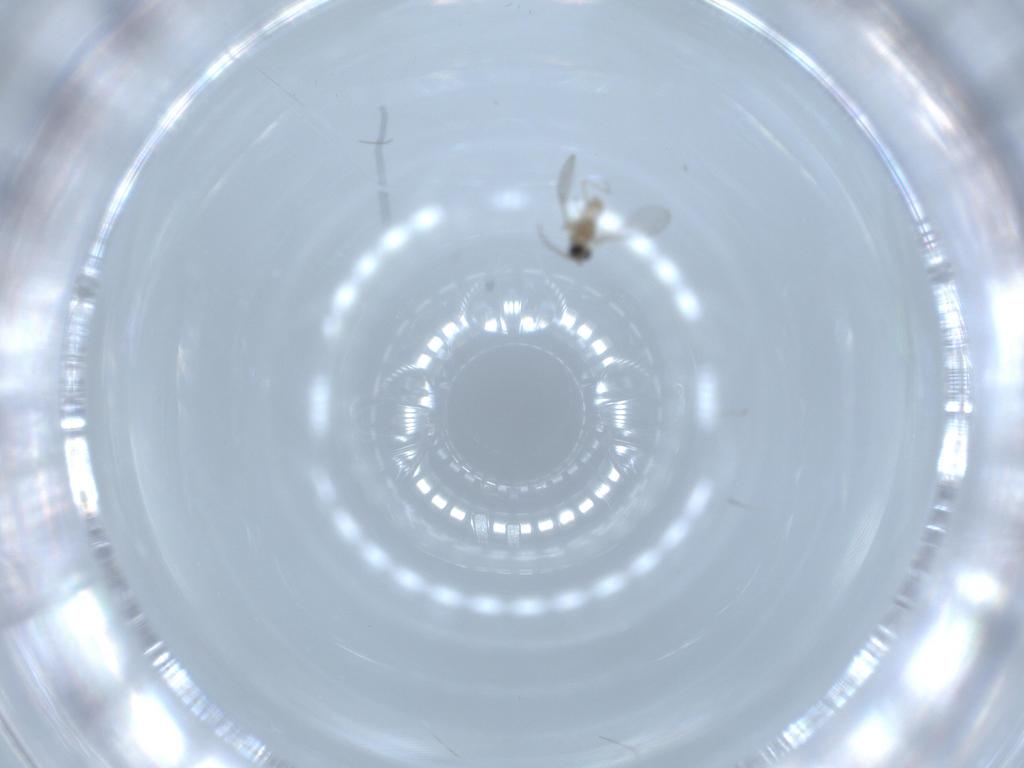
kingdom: Animalia
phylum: Arthropoda
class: Insecta
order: Diptera
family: Cecidomyiidae
